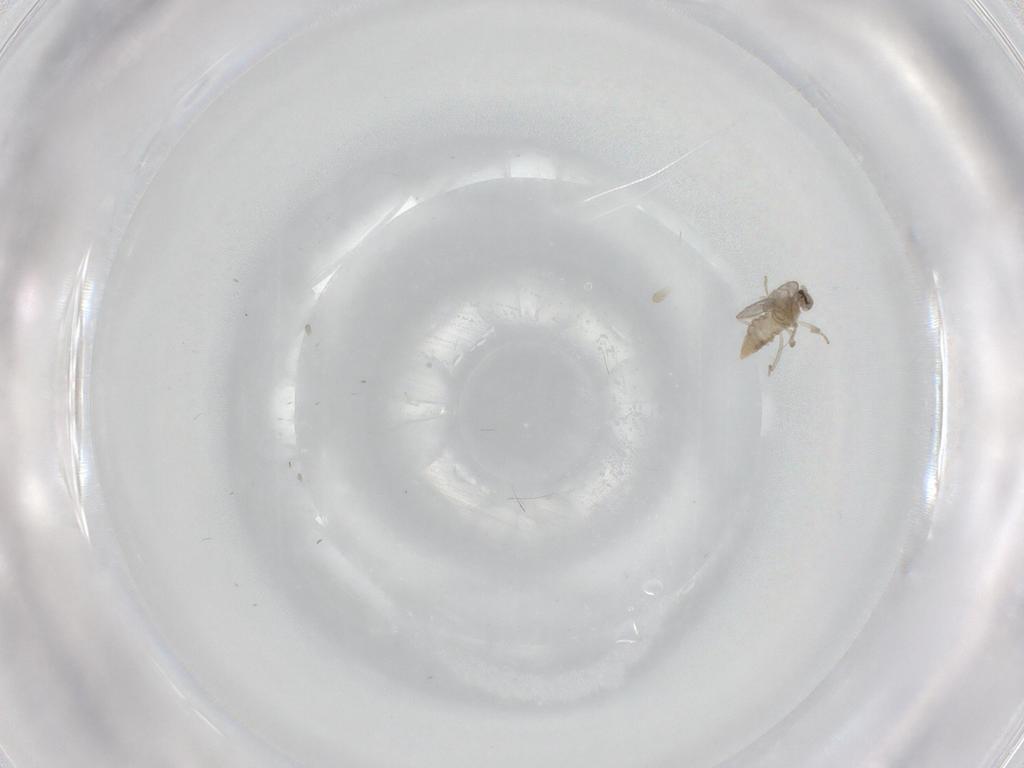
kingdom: Animalia
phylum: Arthropoda
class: Insecta
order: Diptera
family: Cecidomyiidae
